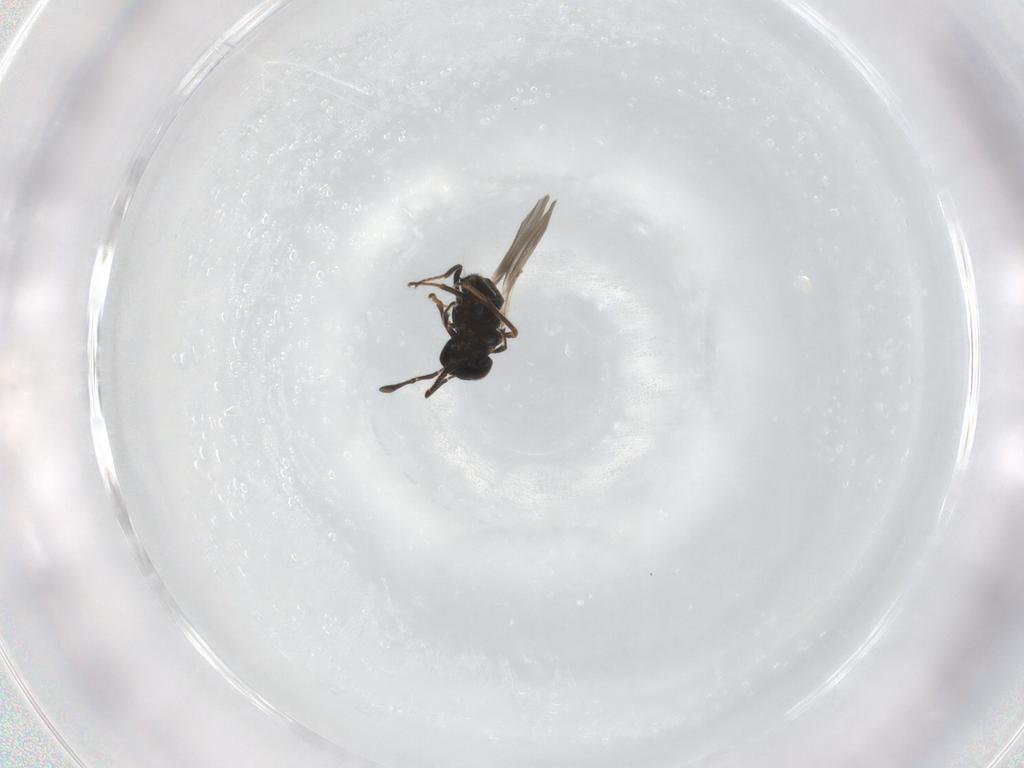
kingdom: Animalia
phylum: Arthropoda
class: Insecta
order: Hymenoptera
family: Encyrtidae
